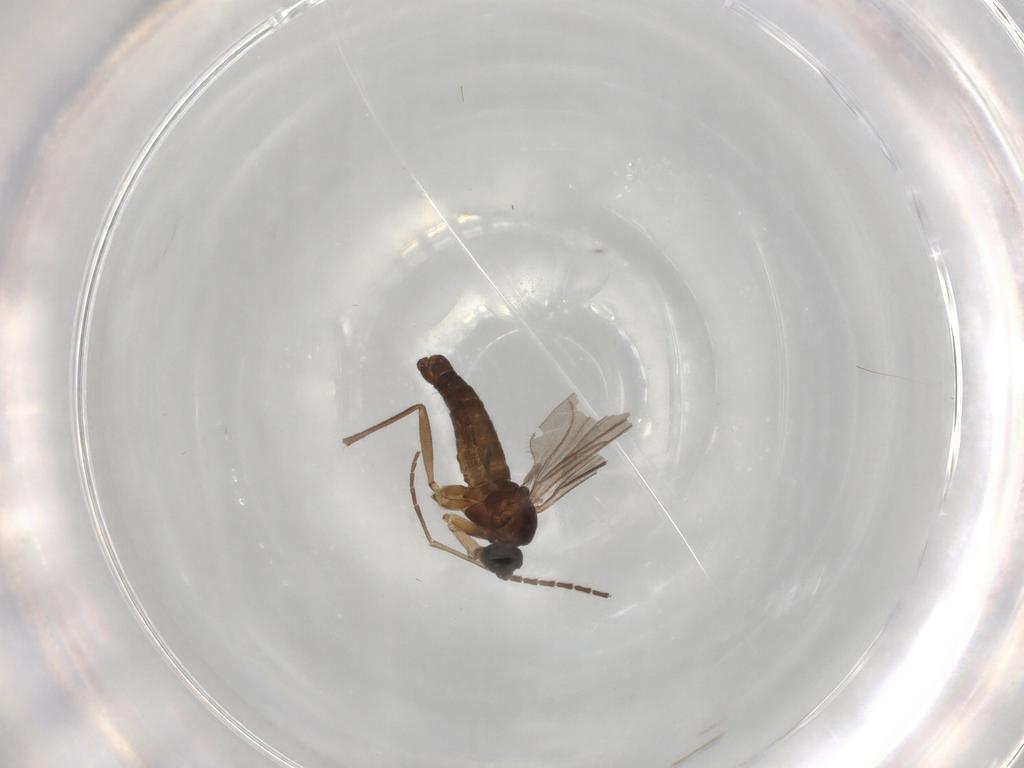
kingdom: Animalia
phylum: Arthropoda
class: Insecta
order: Diptera
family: Sciaridae
